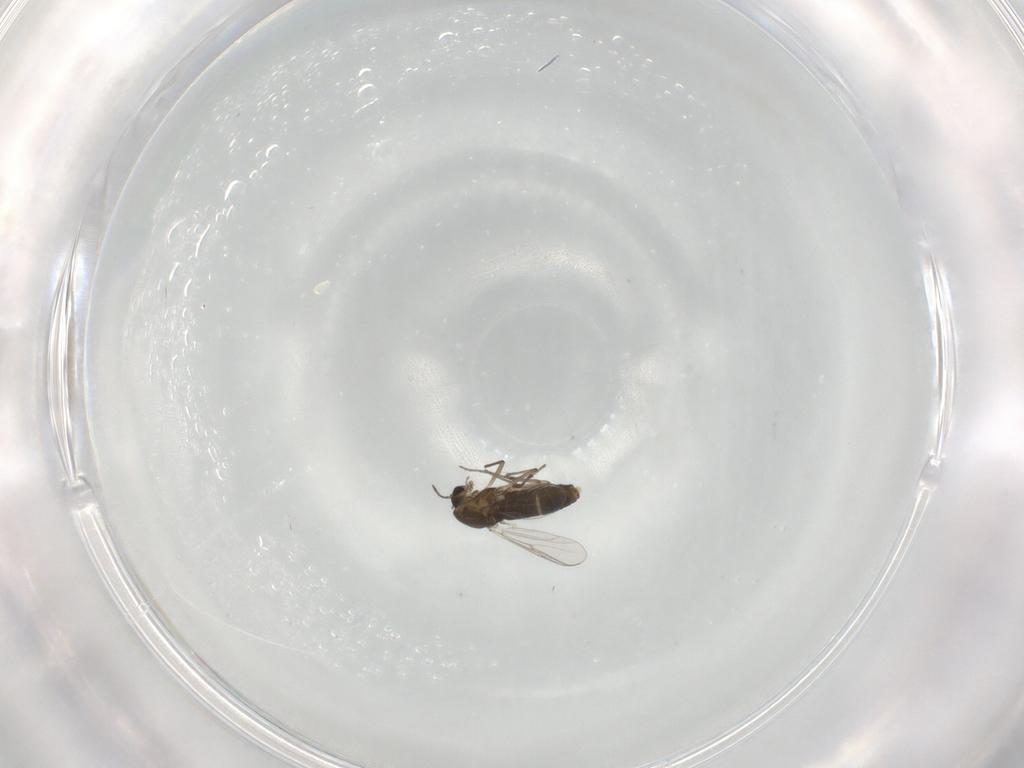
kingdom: Animalia
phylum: Arthropoda
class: Insecta
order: Diptera
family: Chironomidae
